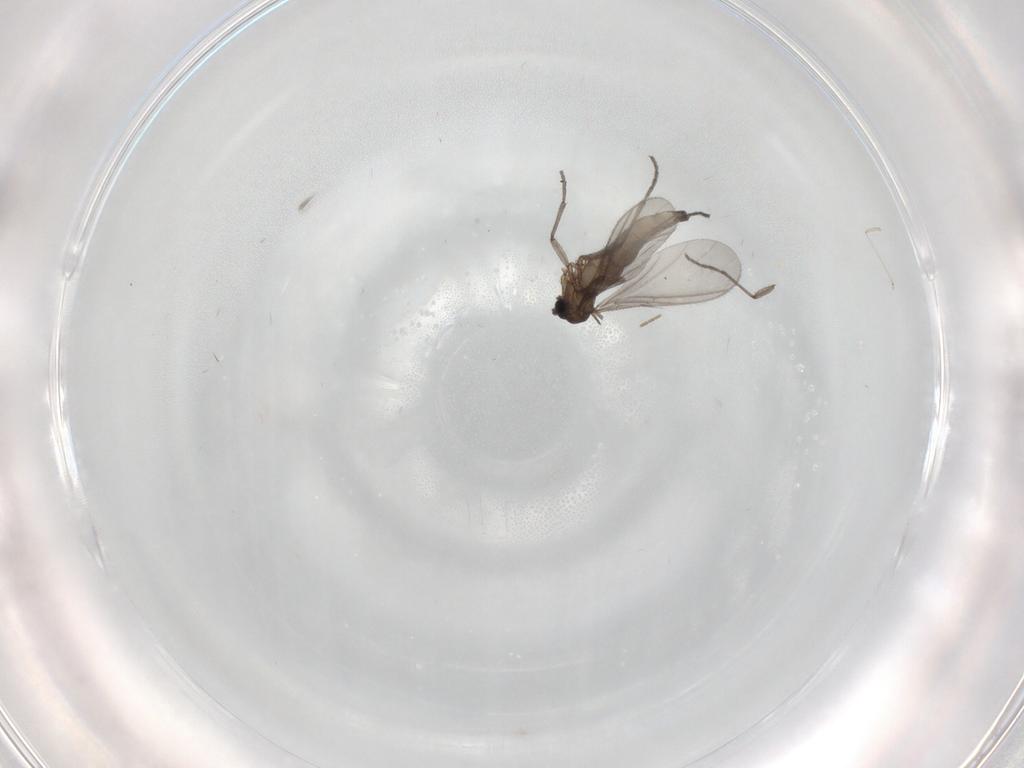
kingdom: Animalia
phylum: Arthropoda
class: Insecta
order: Diptera
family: Sciaridae
